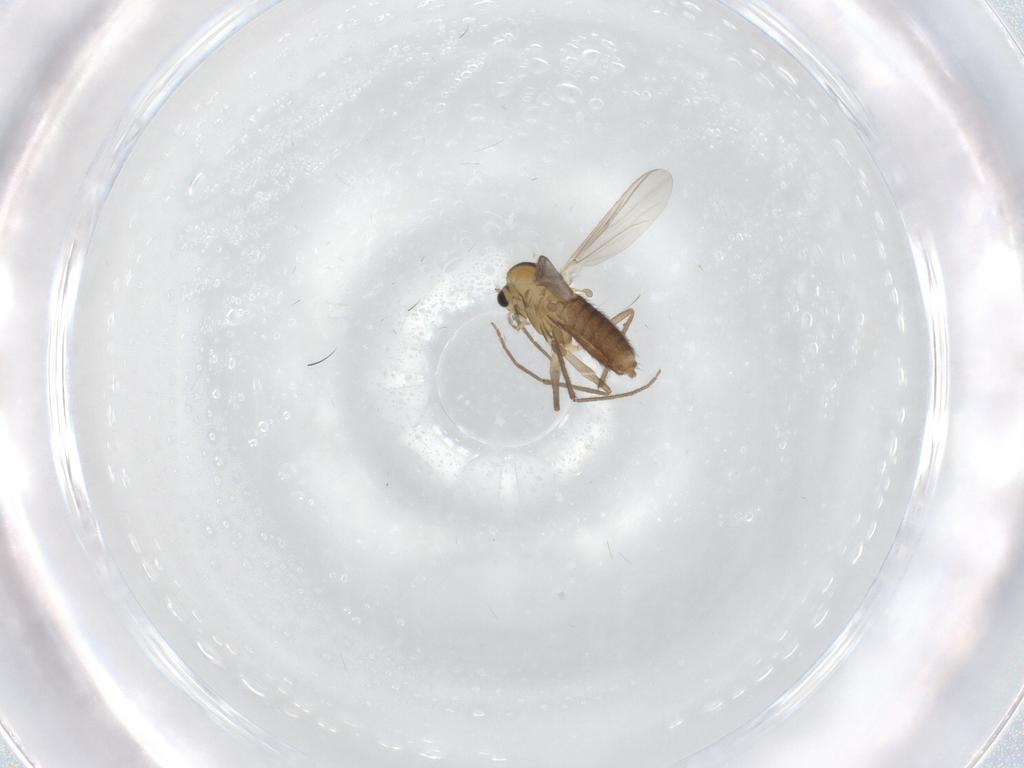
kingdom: Animalia
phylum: Arthropoda
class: Insecta
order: Diptera
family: Chironomidae
